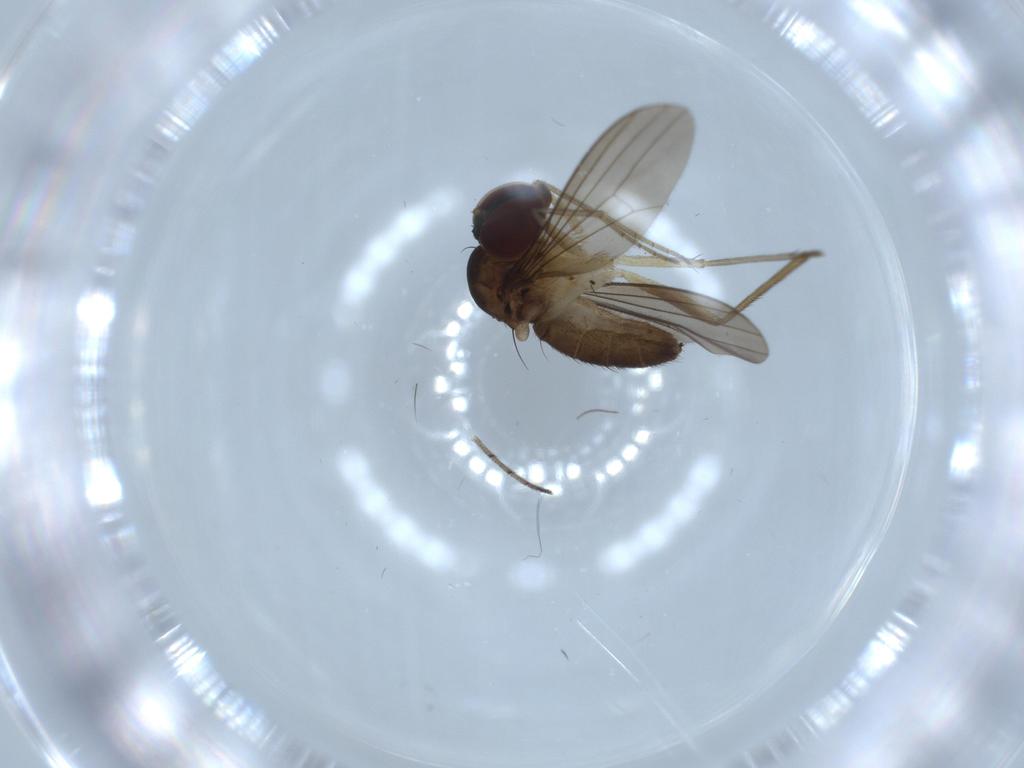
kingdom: Animalia
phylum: Arthropoda
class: Insecta
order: Diptera
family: Dolichopodidae
